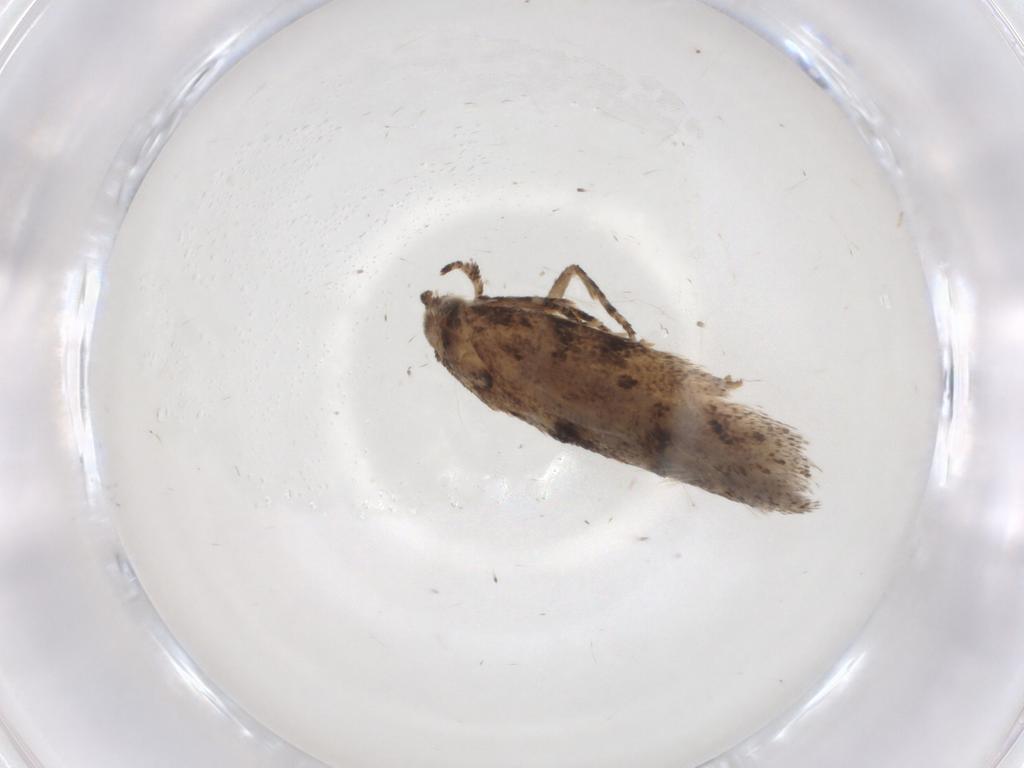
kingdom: Animalia
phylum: Arthropoda
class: Insecta
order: Lepidoptera
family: Gelechiidae
